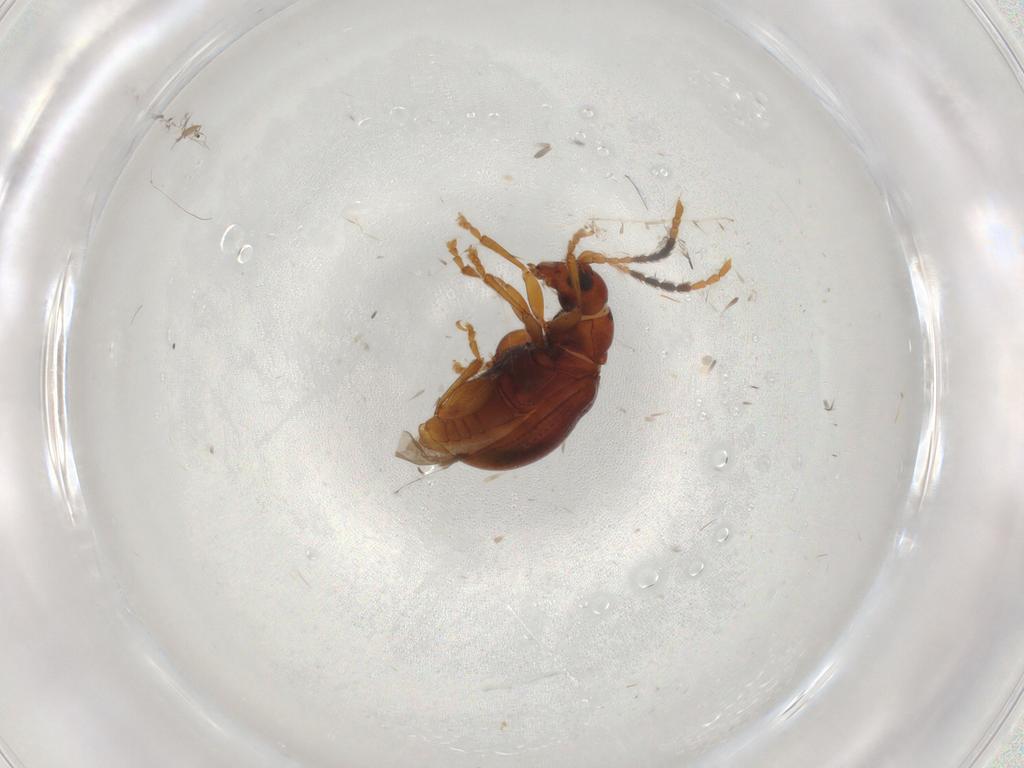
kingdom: Animalia
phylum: Arthropoda
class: Insecta
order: Coleoptera
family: Chrysomelidae
